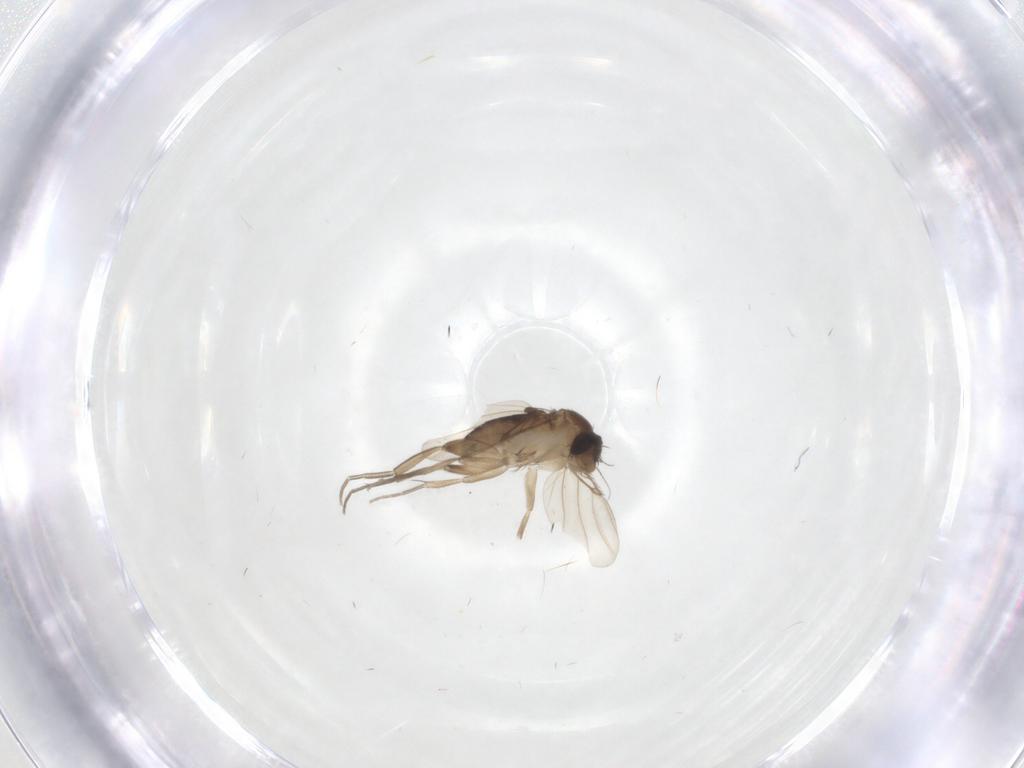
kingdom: Animalia
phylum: Arthropoda
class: Insecta
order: Diptera
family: Phoridae
